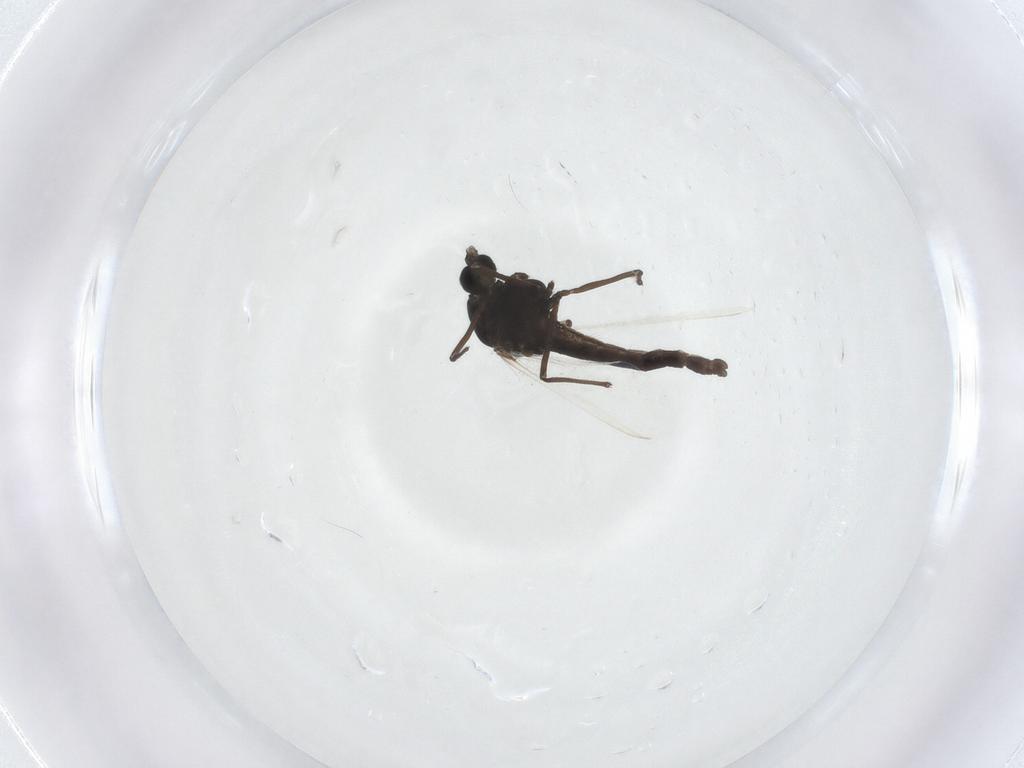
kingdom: Animalia
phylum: Arthropoda
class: Insecta
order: Diptera
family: Chironomidae
